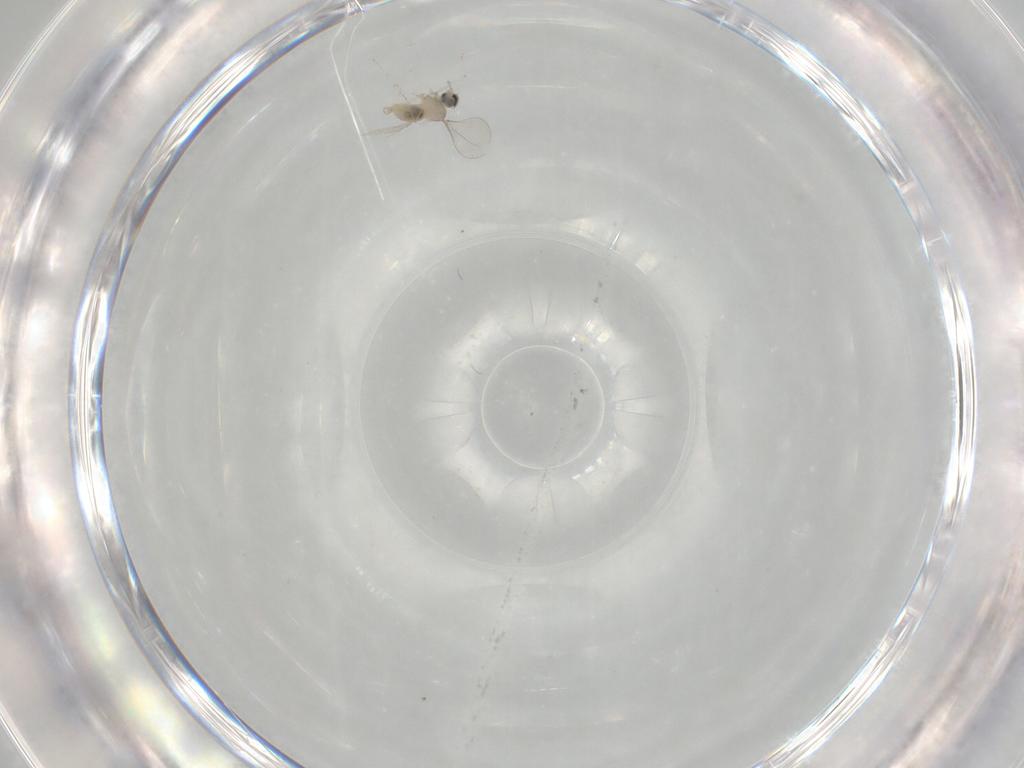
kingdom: Animalia
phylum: Arthropoda
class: Insecta
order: Diptera
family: Cecidomyiidae
